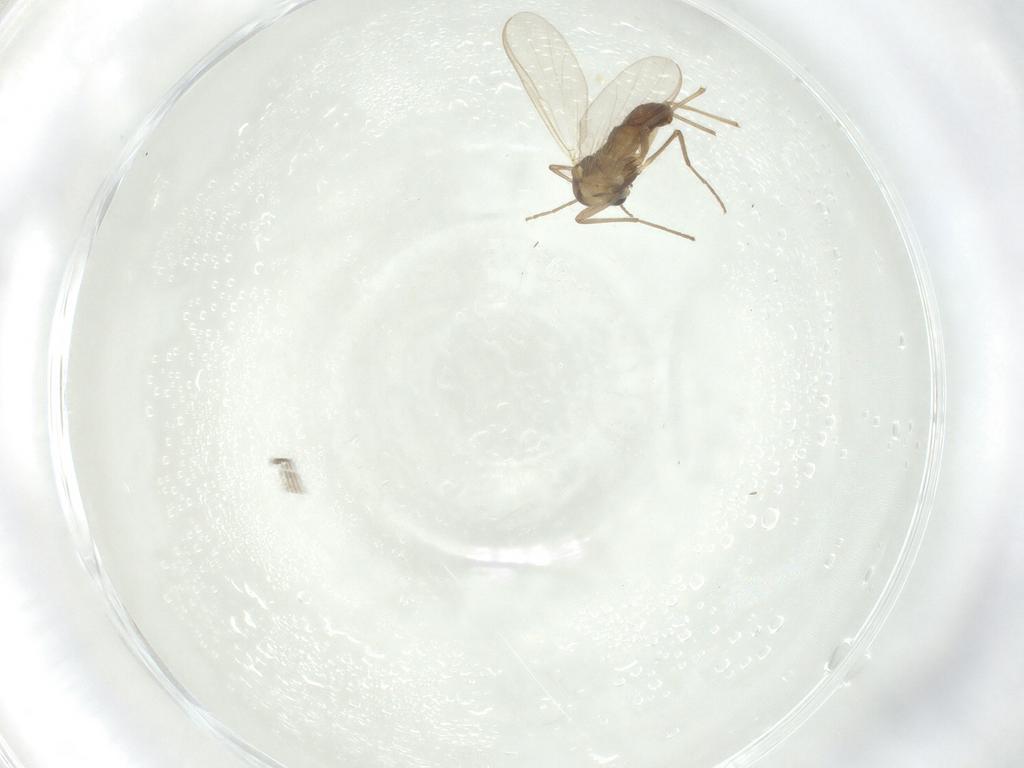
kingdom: Animalia
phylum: Arthropoda
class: Insecta
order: Diptera
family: Chironomidae
